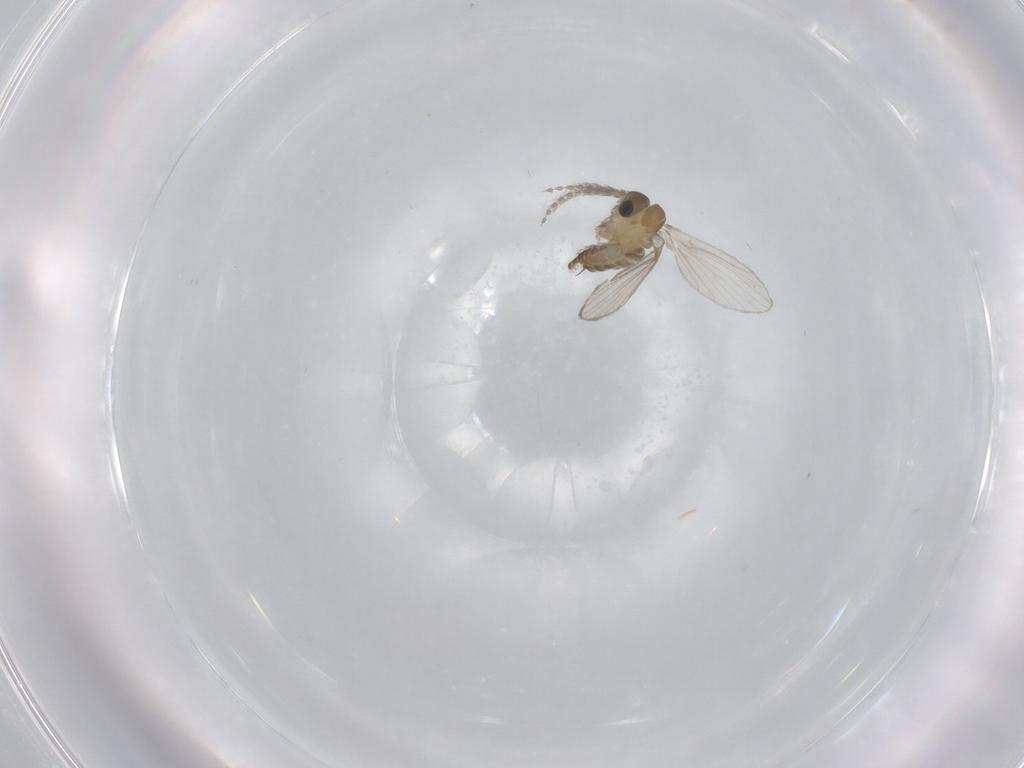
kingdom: Animalia
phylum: Arthropoda
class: Insecta
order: Diptera
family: Psychodidae
